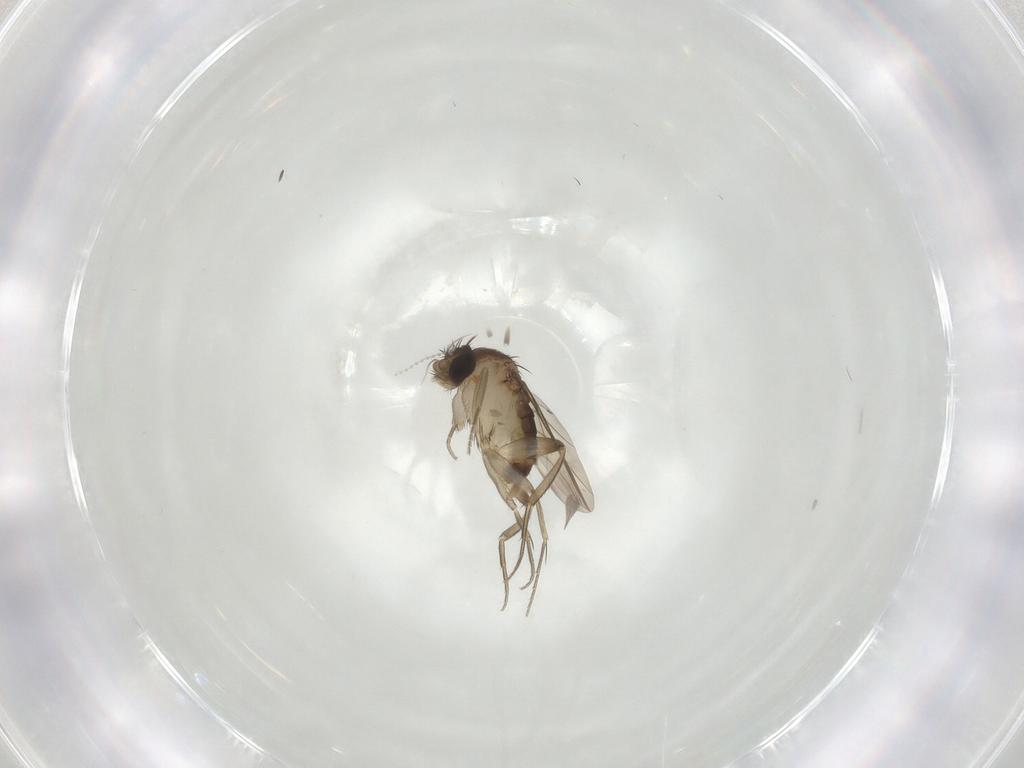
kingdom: Animalia
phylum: Arthropoda
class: Insecta
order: Diptera
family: Phoridae
